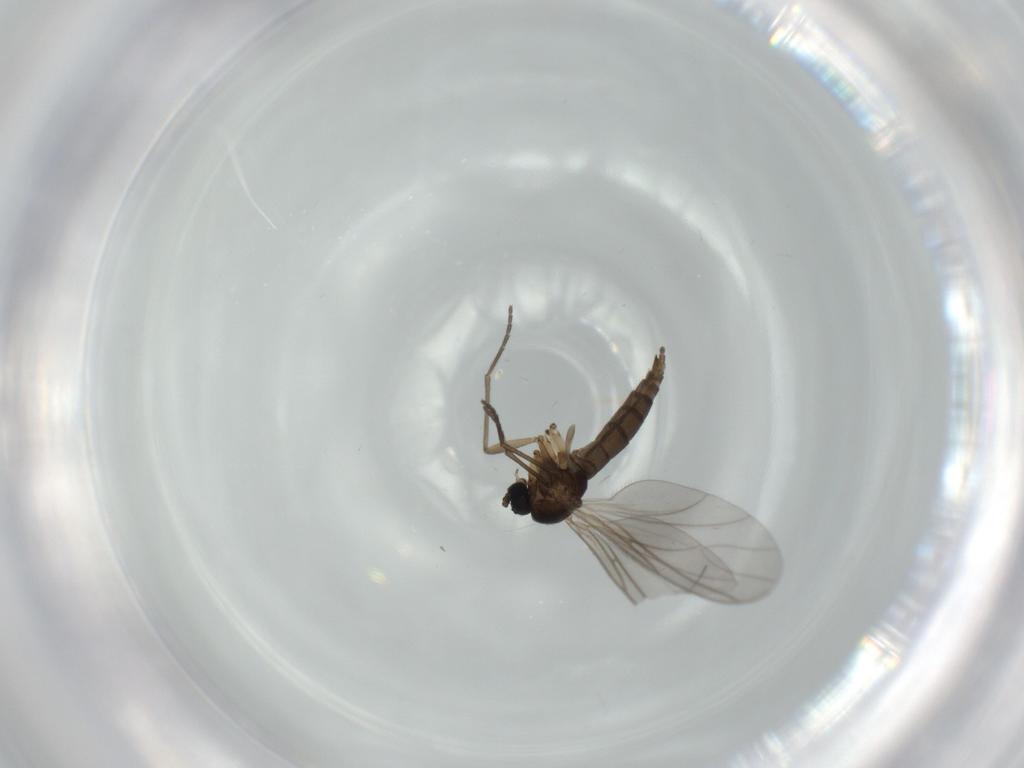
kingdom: Animalia
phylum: Arthropoda
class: Insecta
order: Diptera
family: Sciaridae
